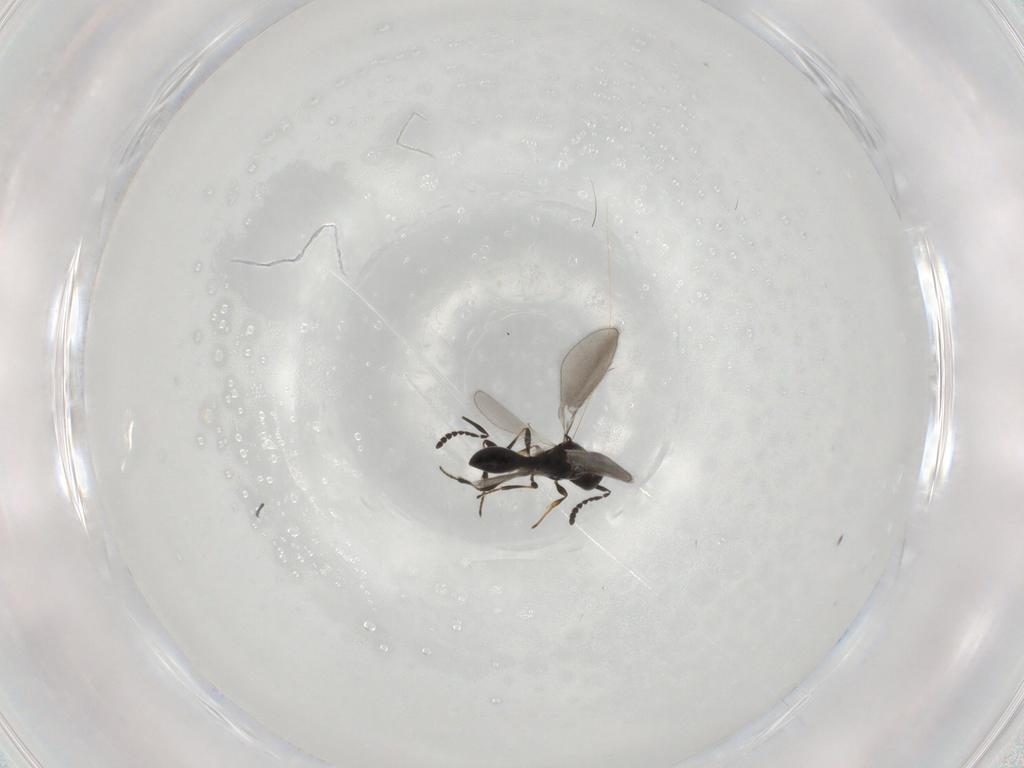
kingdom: Animalia
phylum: Arthropoda
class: Insecta
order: Hymenoptera
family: Platygastridae
